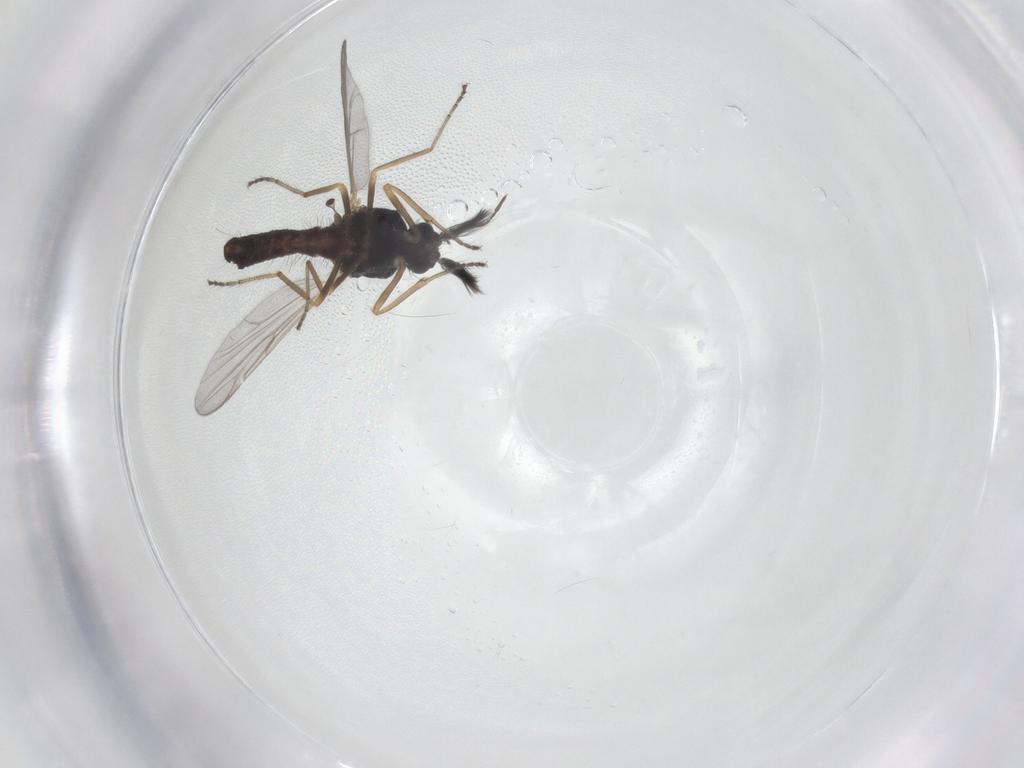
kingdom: Animalia
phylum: Arthropoda
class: Insecta
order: Diptera
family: Ceratopogonidae
